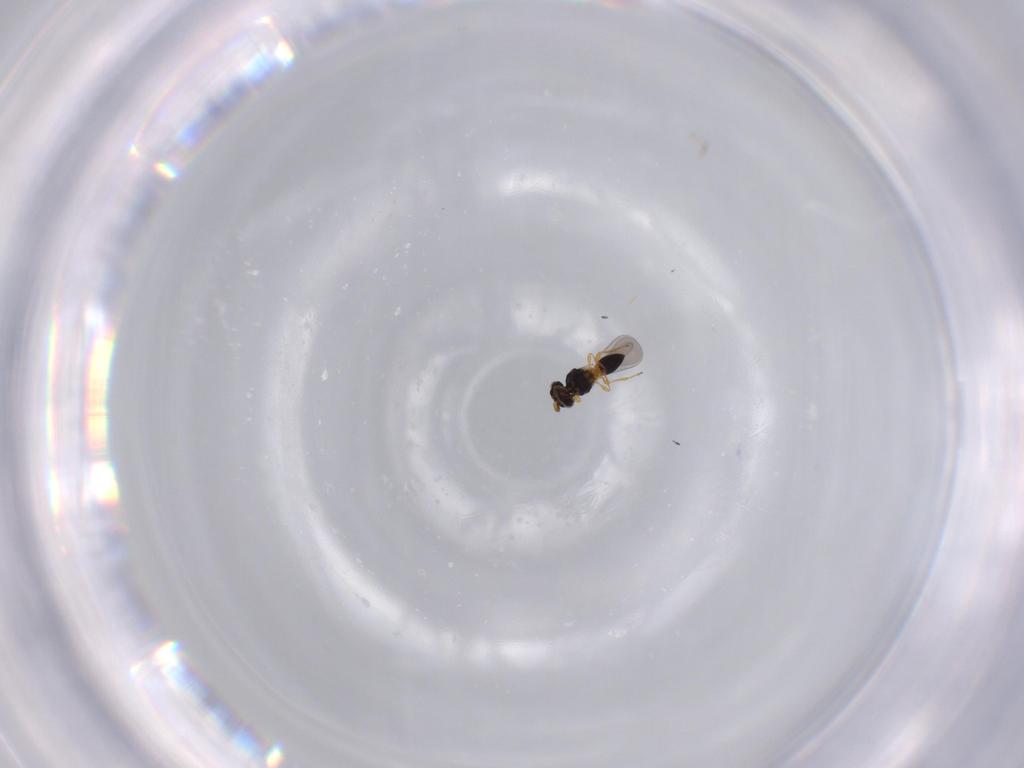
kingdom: Animalia
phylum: Arthropoda
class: Insecta
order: Hymenoptera
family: Platygastridae
